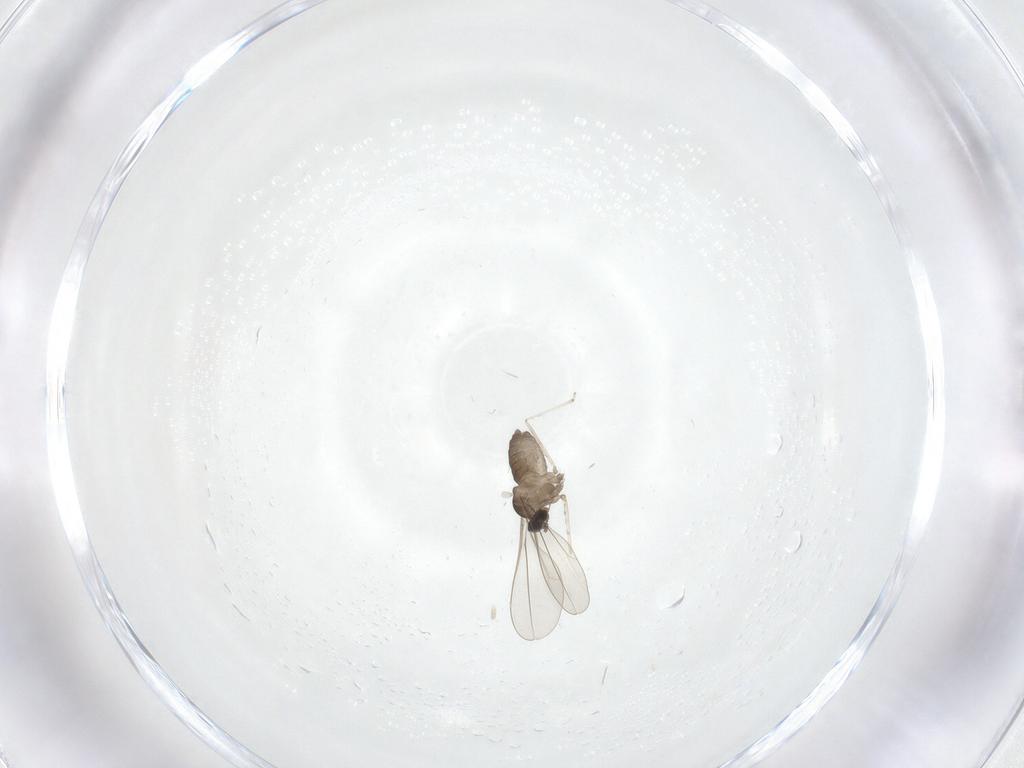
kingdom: Animalia
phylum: Arthropoda
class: Insecta
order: Diptera
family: Cecidomyiidae
